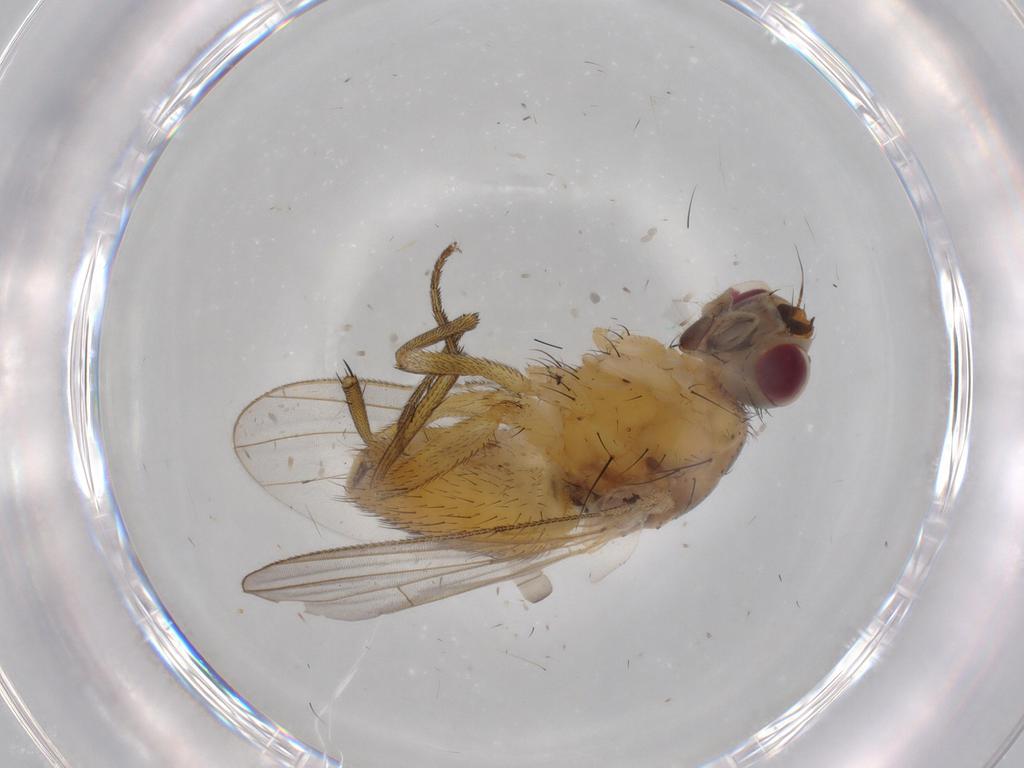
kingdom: Animalia
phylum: Arthropoda
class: Insecta
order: Diptera
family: Muscidae
